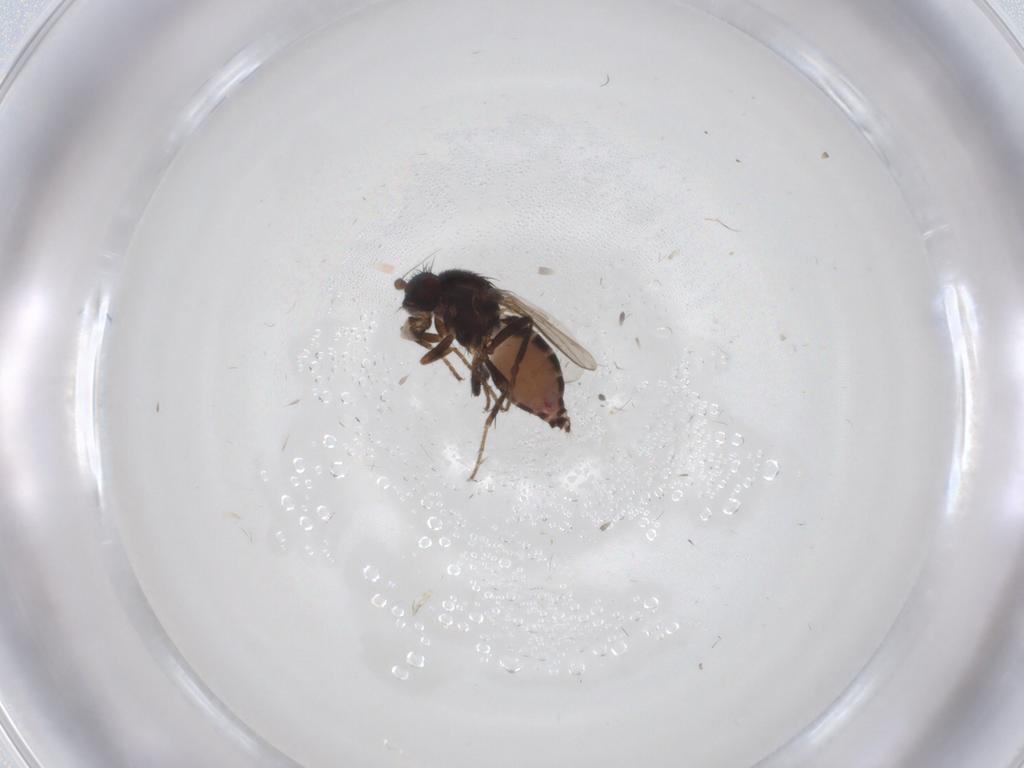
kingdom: Animalia
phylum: Arthropoda
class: Insecta
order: Diptera
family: Sphaeroceridae
